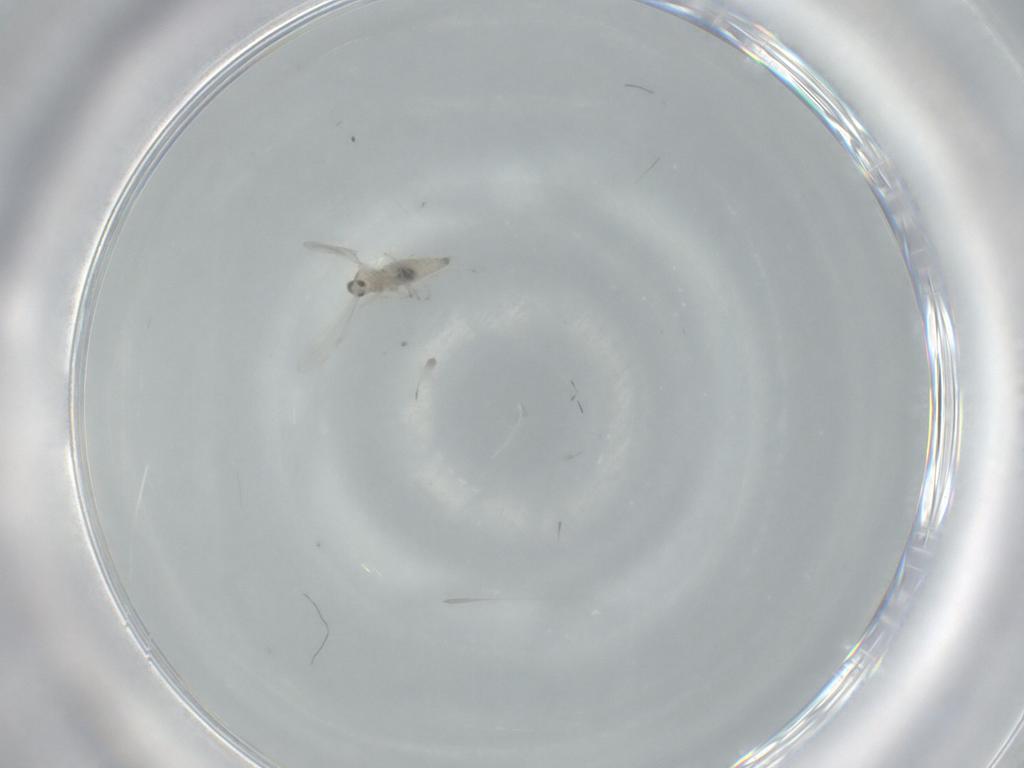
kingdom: Animalia
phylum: Arthropoda
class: Insecta
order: Diptera
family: Cecidomyiidae
